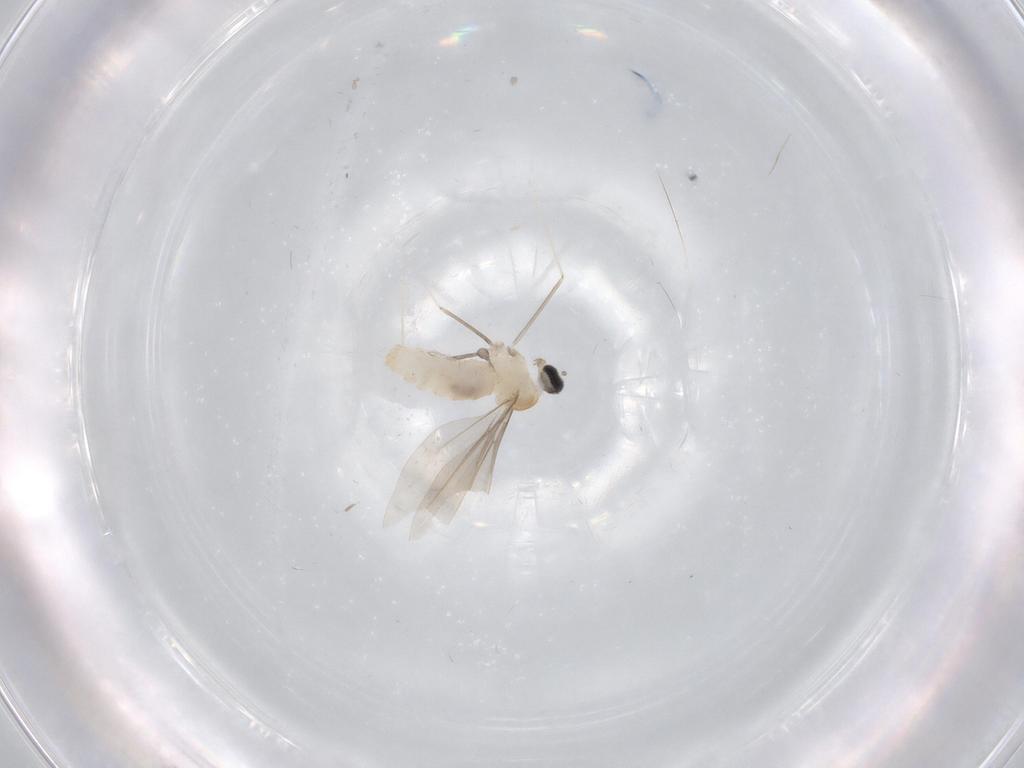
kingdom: Animalia
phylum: Arthropoda
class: Insecta
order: Diptera
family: Cecidomyiidae
